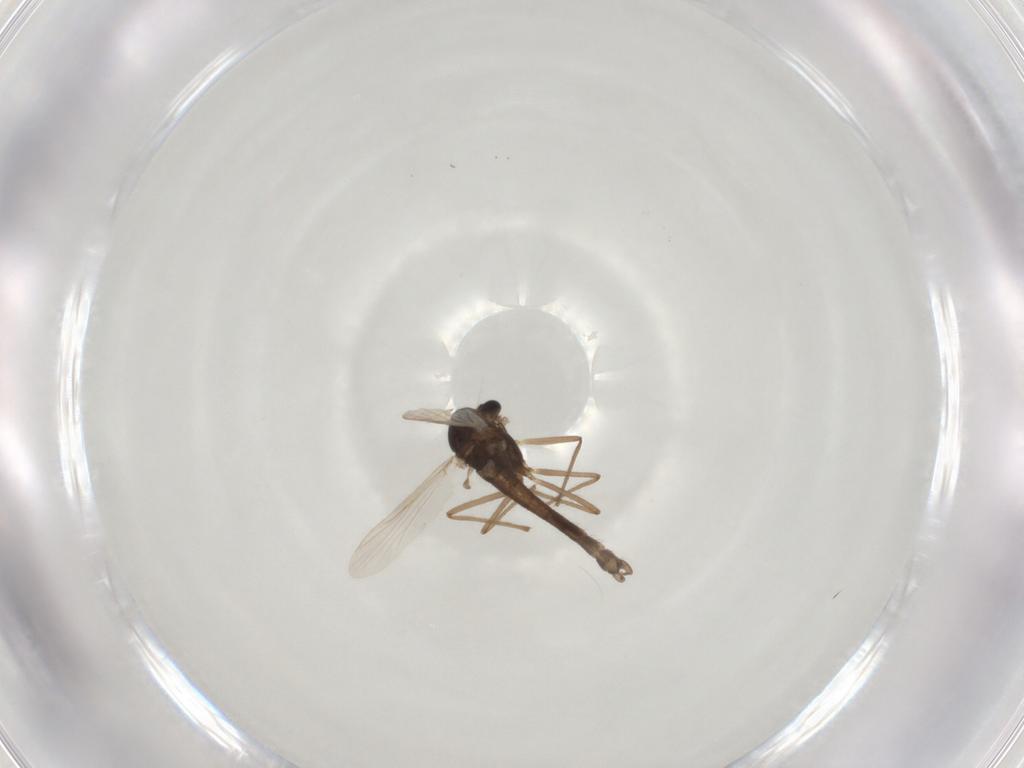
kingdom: Animalia
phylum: Arthropoda
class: Insecta
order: Diptera
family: Chironomidae
